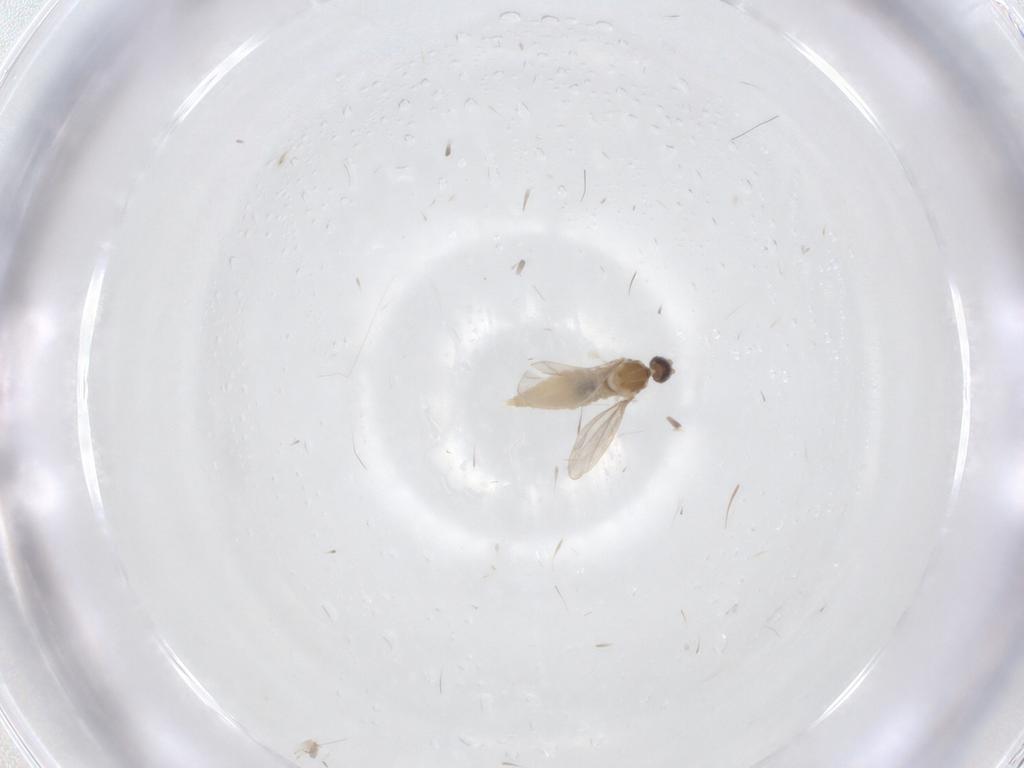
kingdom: Animalia
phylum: Arthropoda
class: Insecta
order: Diptera
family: Cecidomyiidae
